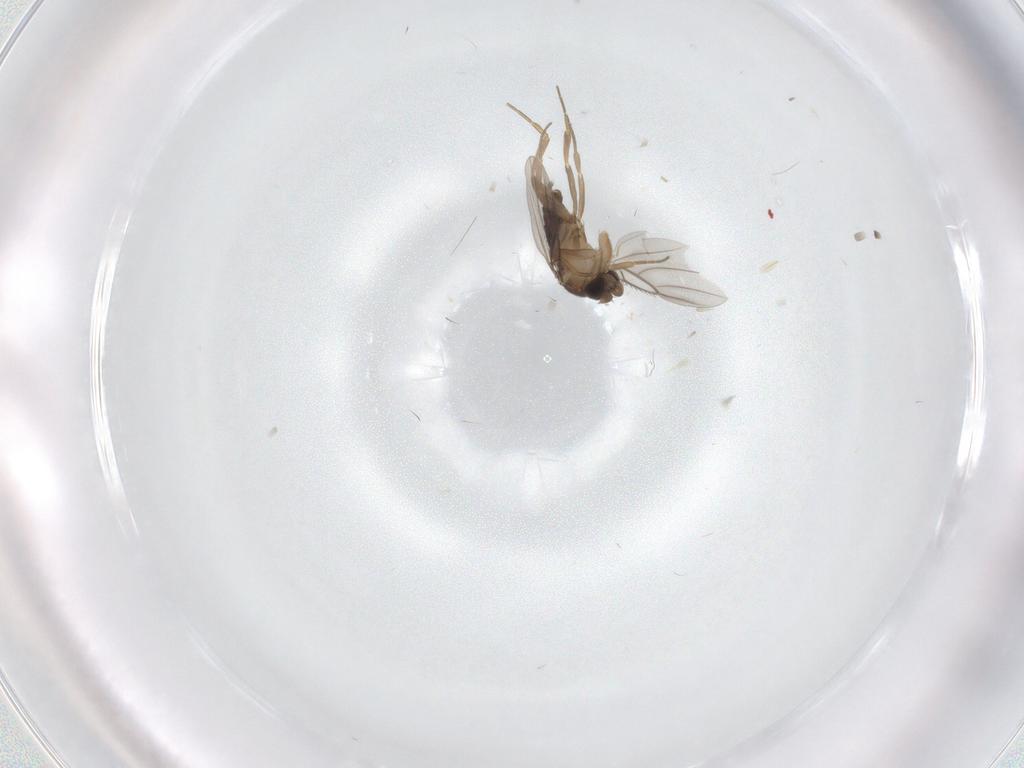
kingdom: Animalia
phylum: Arthropoda
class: Insecta
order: Diptera
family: Phoridae
